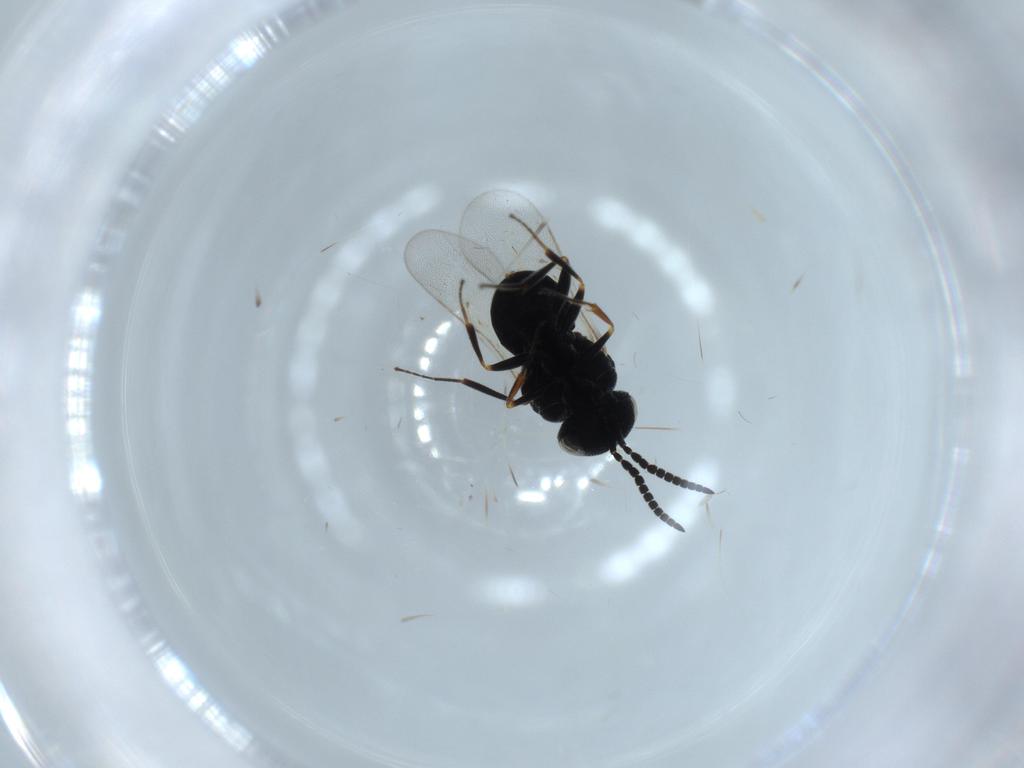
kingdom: Animalia
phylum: Arthropoda
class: Insecta
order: Hymenoptera
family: Scelionidae
